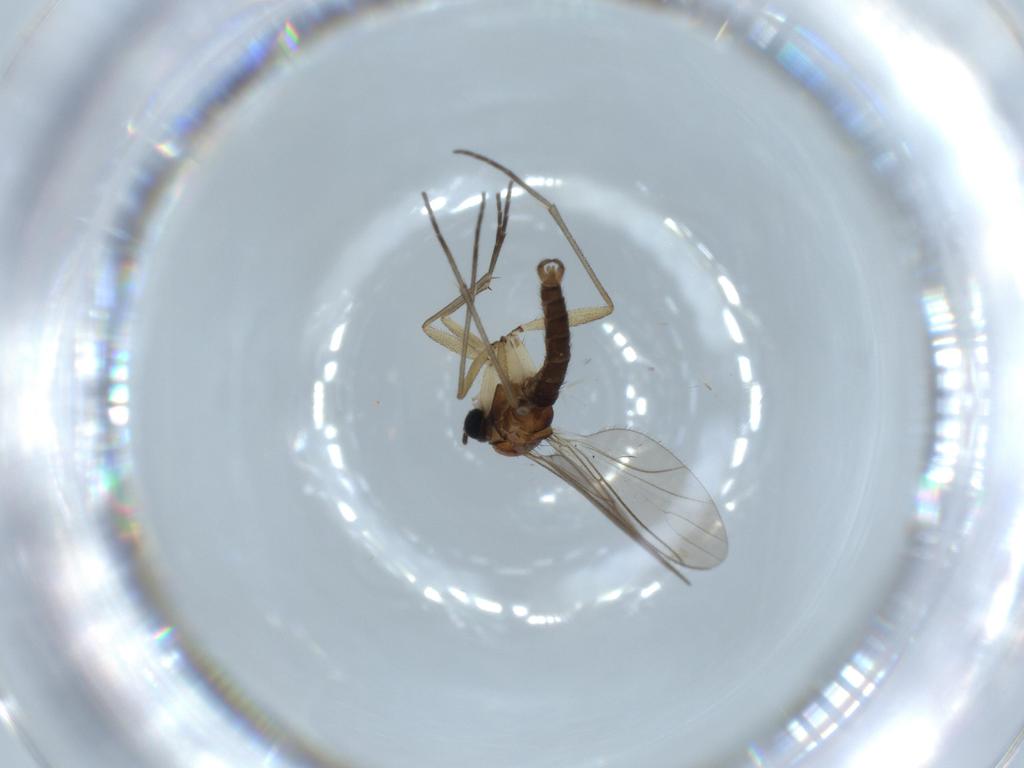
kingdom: Animalia
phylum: Arthropoda
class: Insecta
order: Diptera
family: Sciaridae
